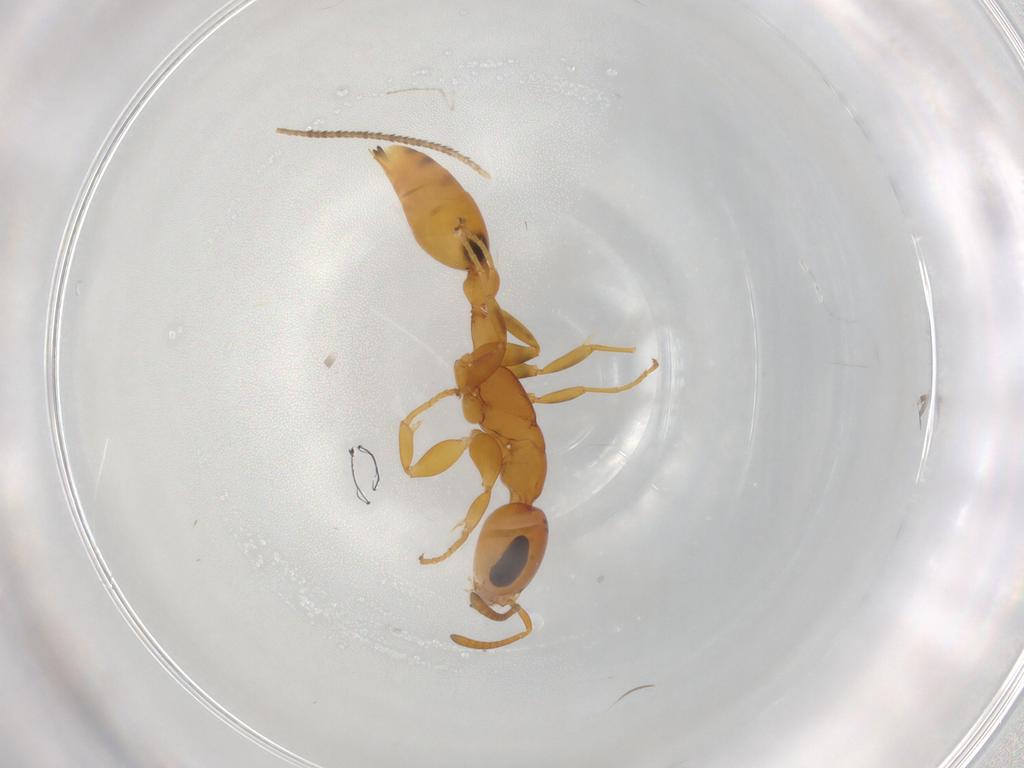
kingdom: Animalia
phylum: Arthropoda
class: Insecta
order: Hymenoptera
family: Formicidae
